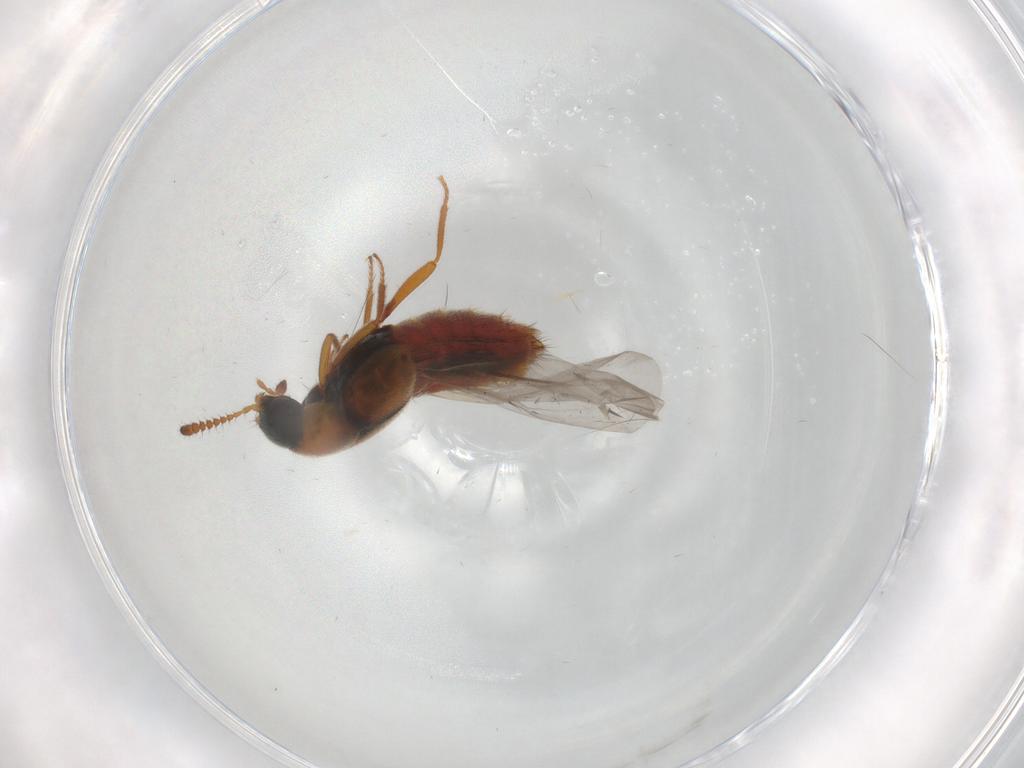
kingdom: Animalia
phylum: Arthropoda
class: Insecta
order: Coleoptera
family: Staphylinidae
